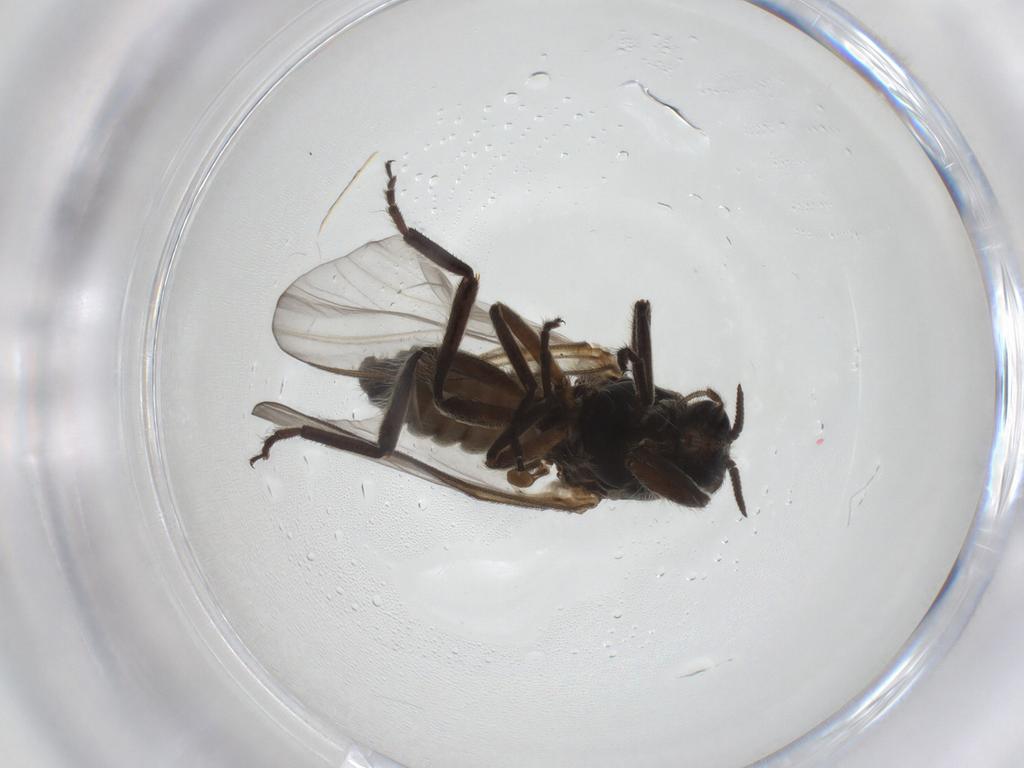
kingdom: Animalia
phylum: Arthropoda
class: Insecta
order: Diptera
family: Simuliidae
